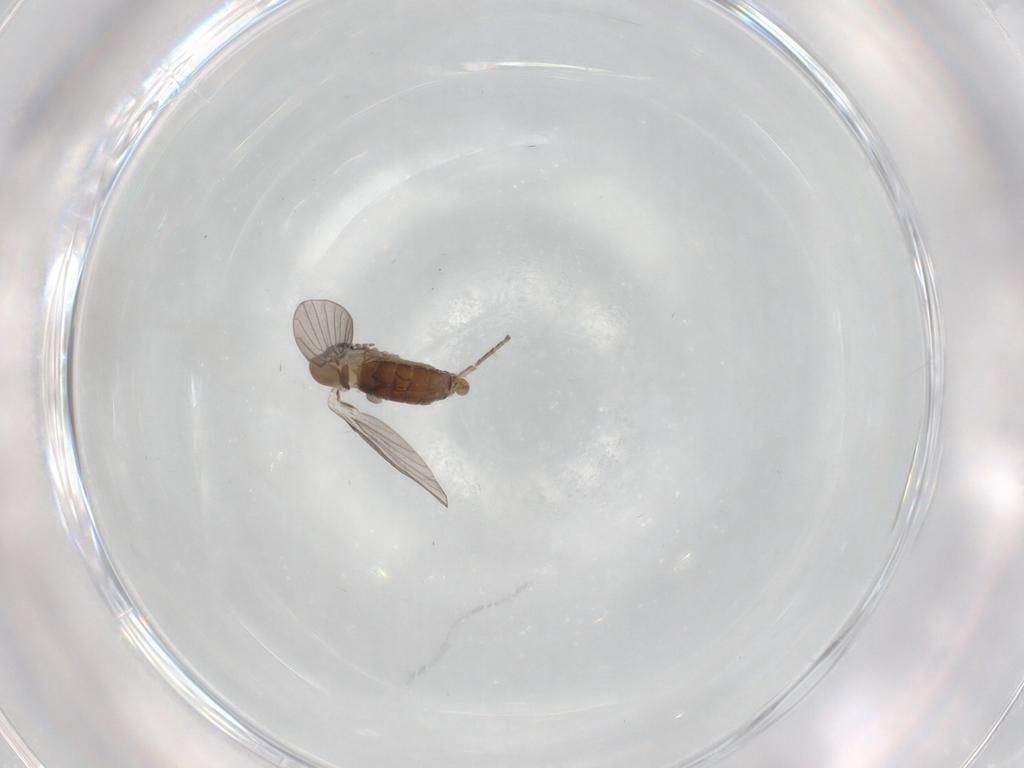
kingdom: Animalia
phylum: Arthropoda
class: Insecta
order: Diptera
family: Psychodidae
